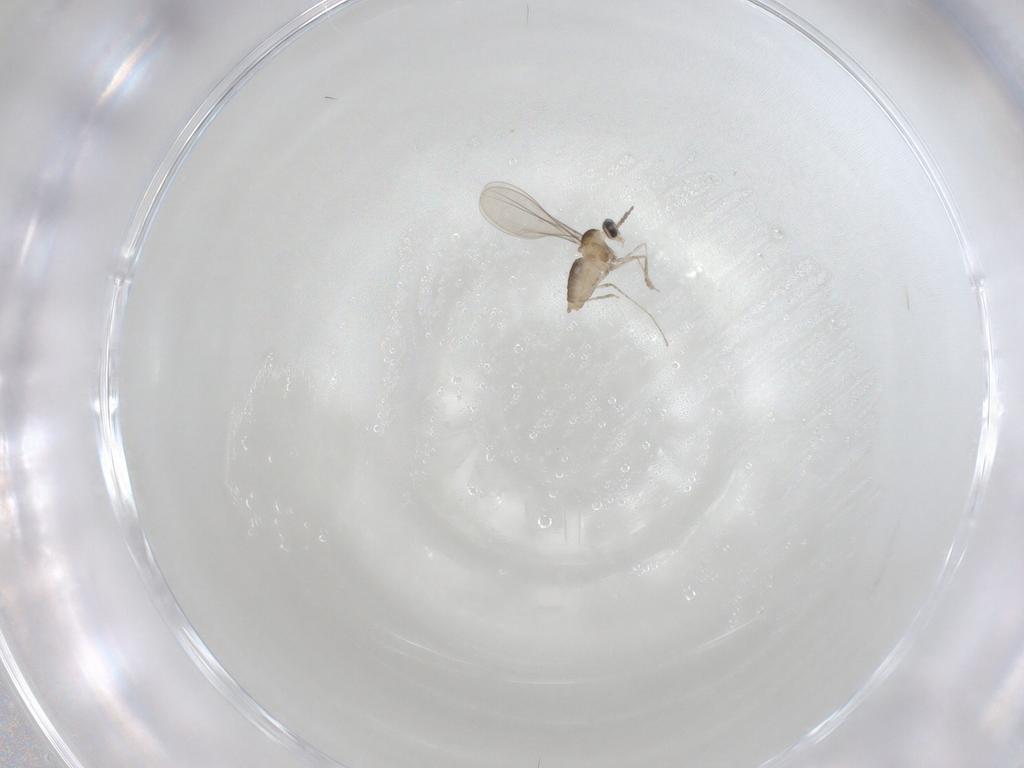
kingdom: Animalia
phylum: Arthropoda
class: Insecta
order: Diptera
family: Cecidomyiidae
